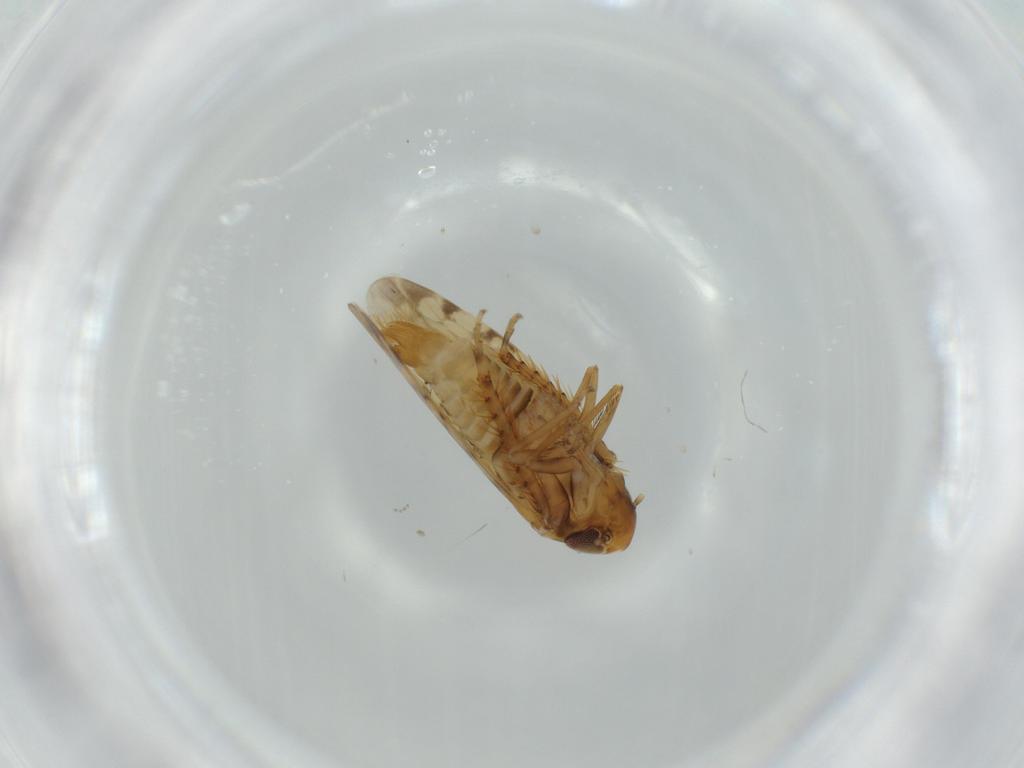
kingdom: Animalia
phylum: Arthropoda
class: Insecta
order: Hemiptera
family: Cicadellidae
